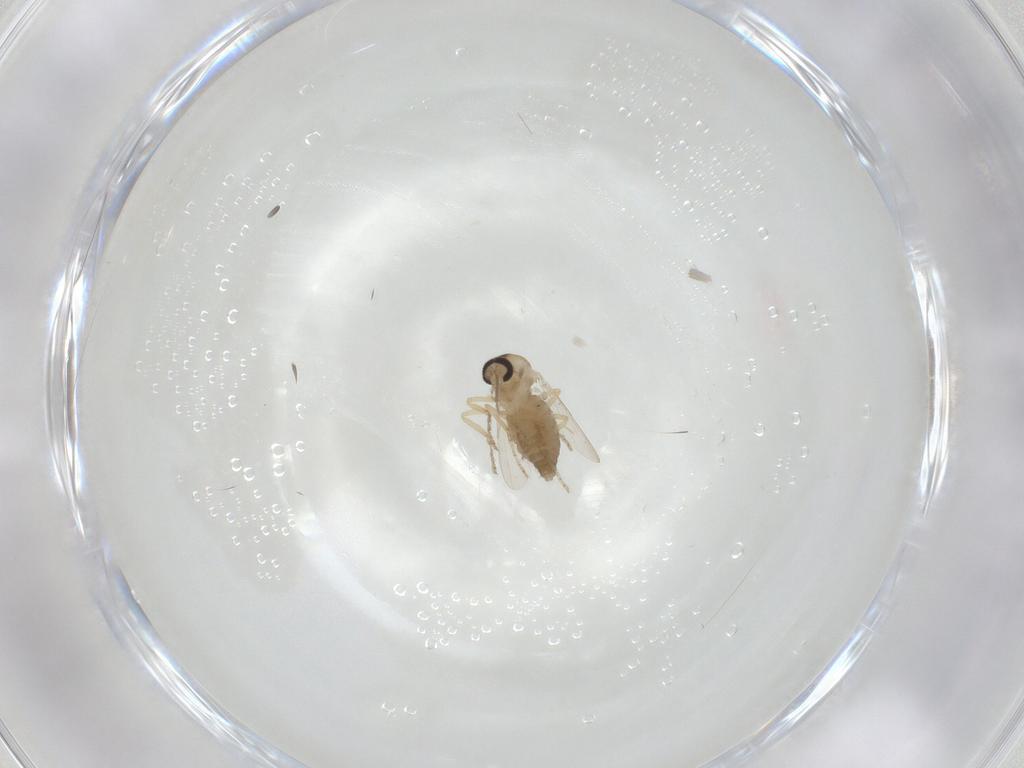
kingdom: Animalia
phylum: Arthropoda
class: Insecta
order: Diptera
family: Ceratopogonidae
